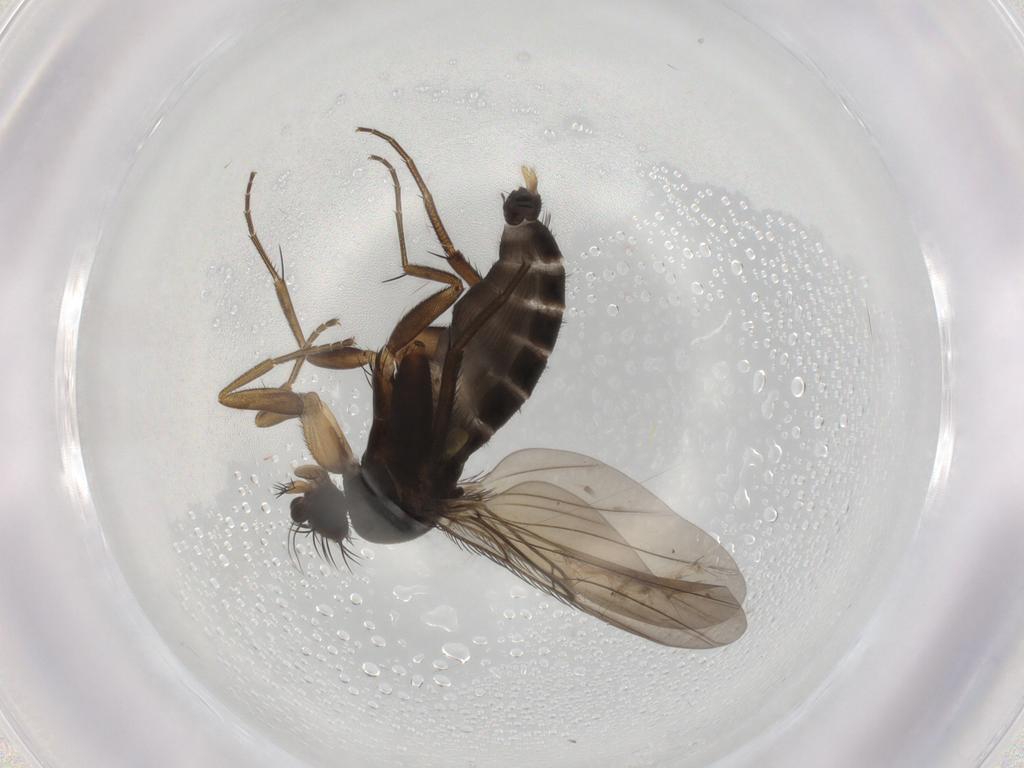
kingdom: Animalia
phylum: Arthropoda
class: Insecta
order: Diptera
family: Phoridae
